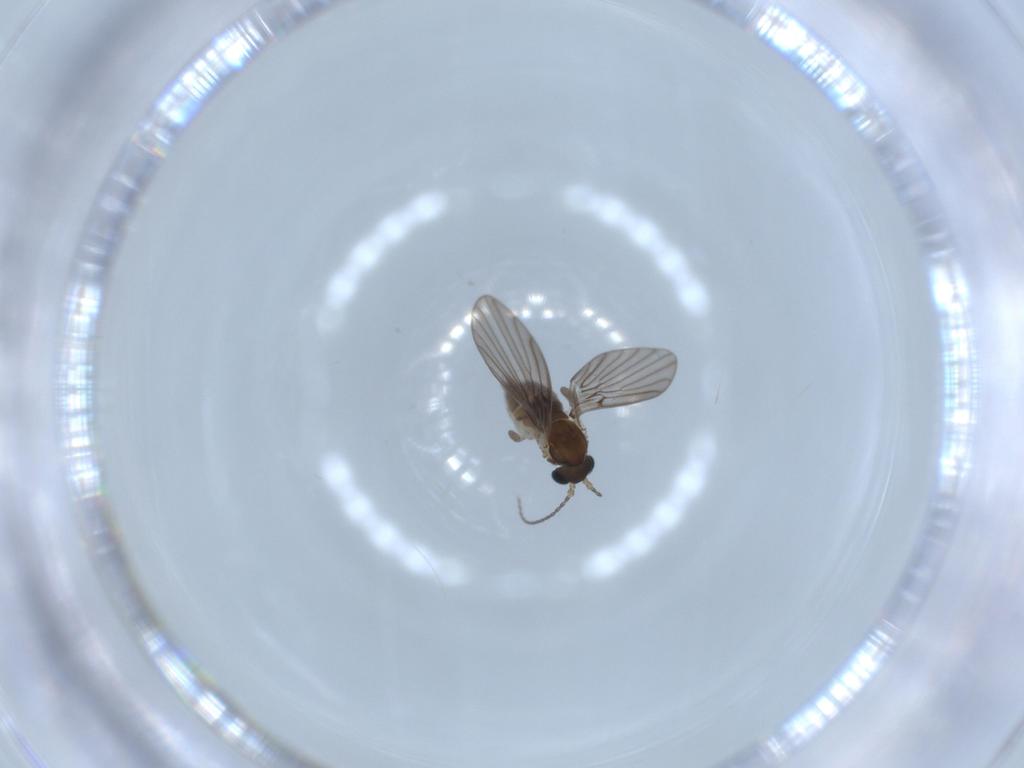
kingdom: Animalia
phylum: Arthropoda
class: Insecta
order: Diptera
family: Psychodidae
